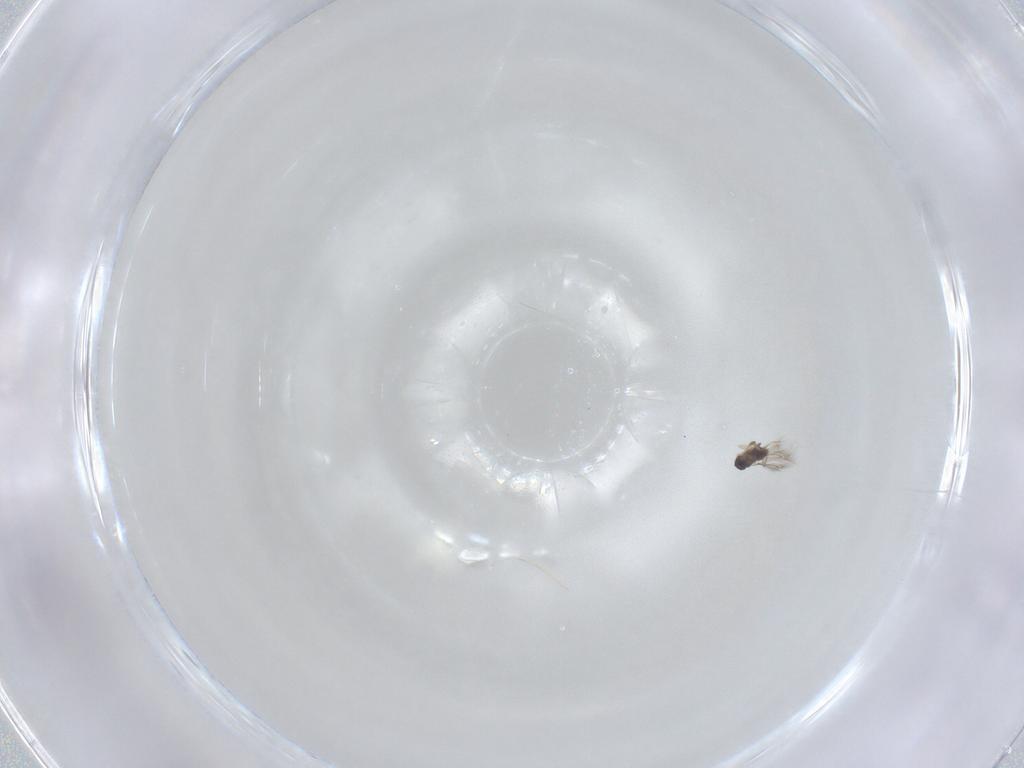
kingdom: Animalia
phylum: Arthropoda
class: Insecta
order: Hymenoptera
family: Mymaridae
